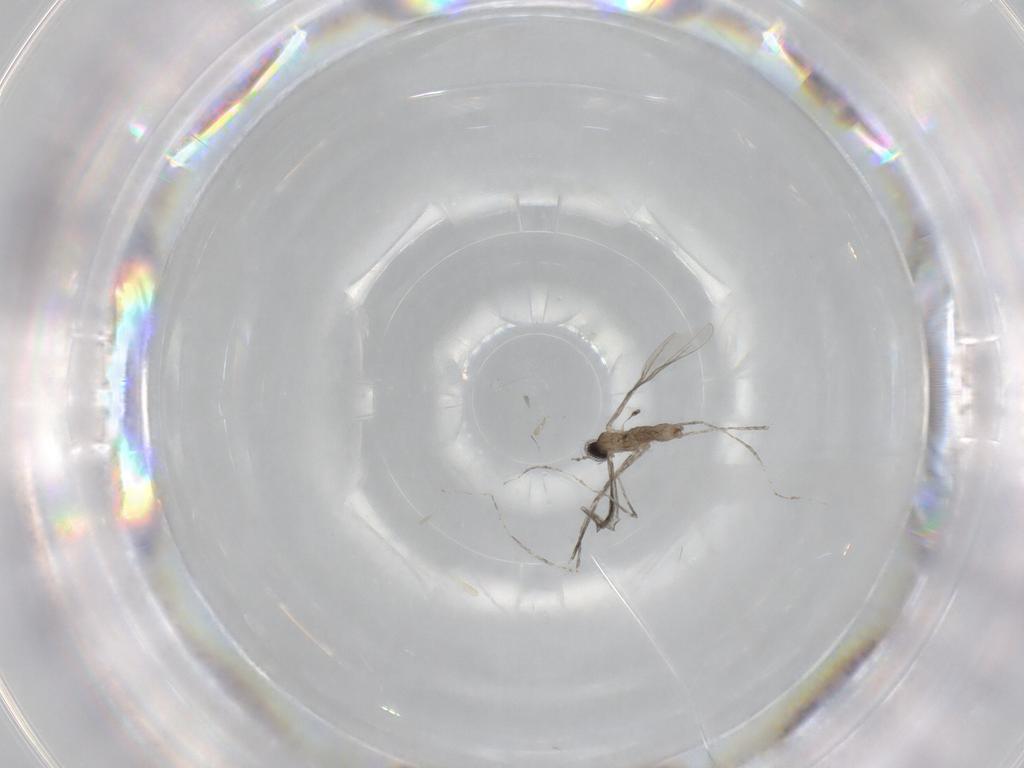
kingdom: Animalia
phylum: Arthropoda
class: Insecta
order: Diptera
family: Cecidomyiidae
